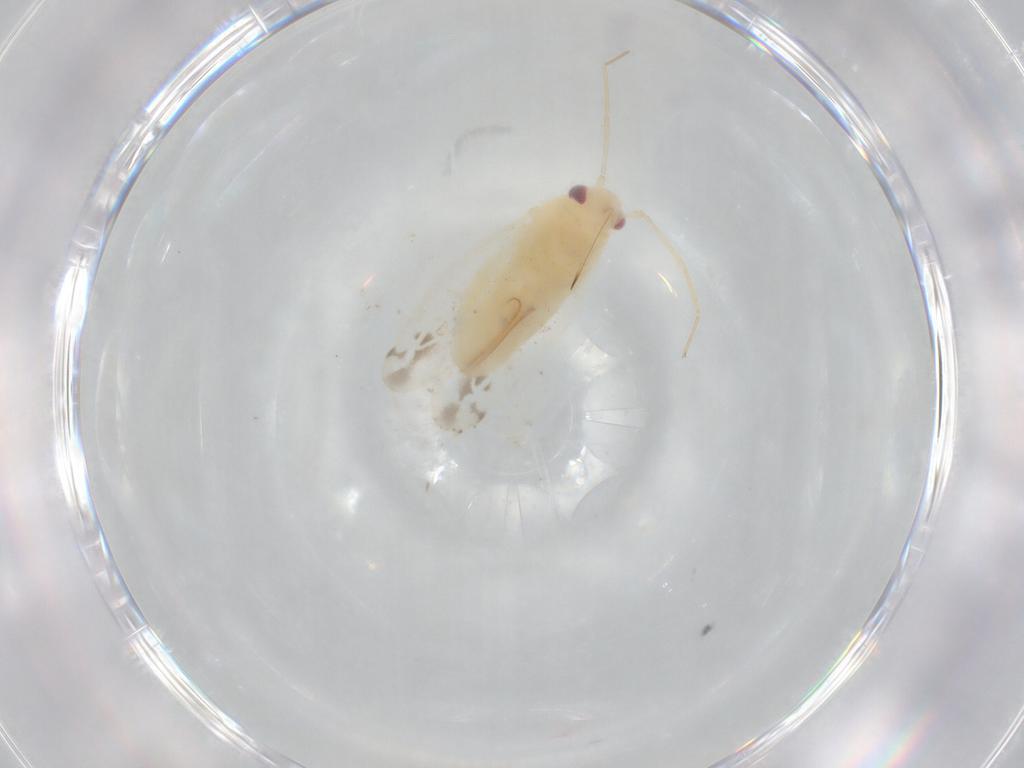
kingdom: Animalia
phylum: Arthropoda
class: Insecta
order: Hemiptera
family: Miridae
